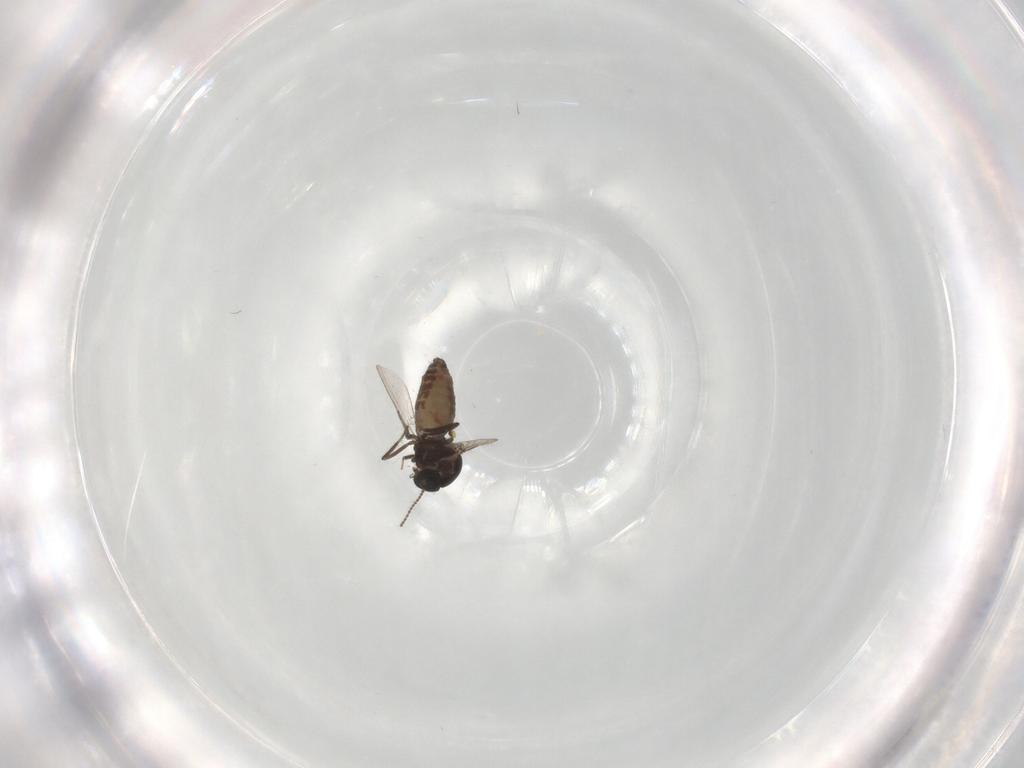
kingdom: Animalia
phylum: Arthropoda
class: Insecta
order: Diptera
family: Ceratopogonidae
